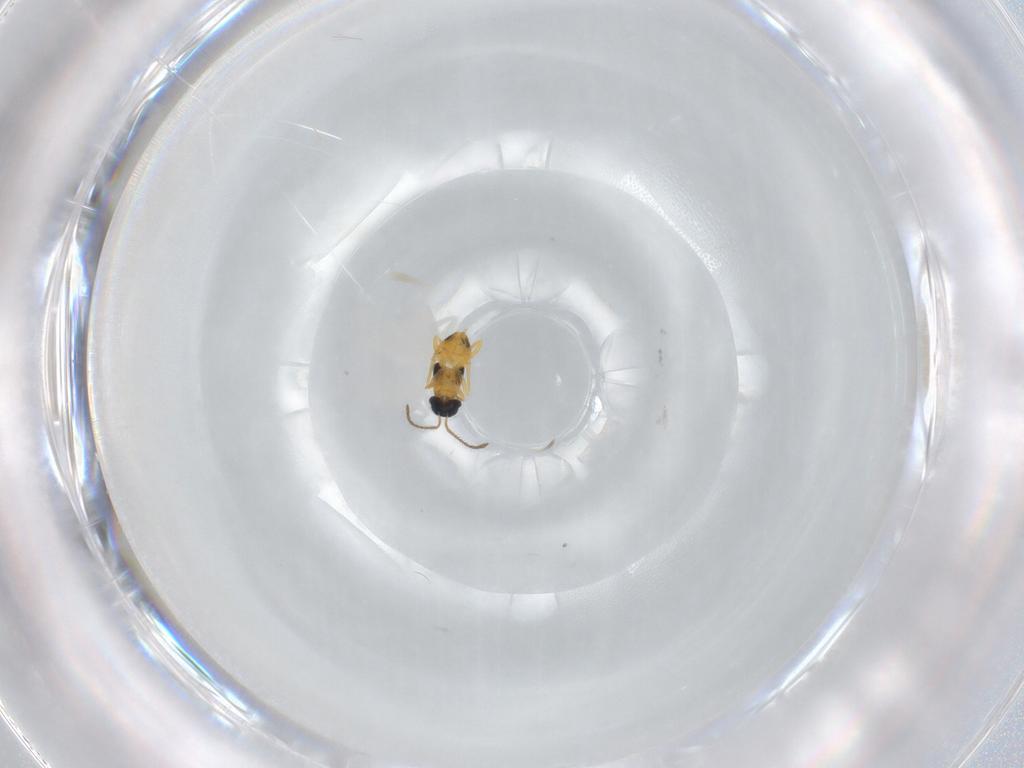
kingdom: Animalia
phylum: Arthropoda
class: Insecta
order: Hymenoptera
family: Encyrtidae
